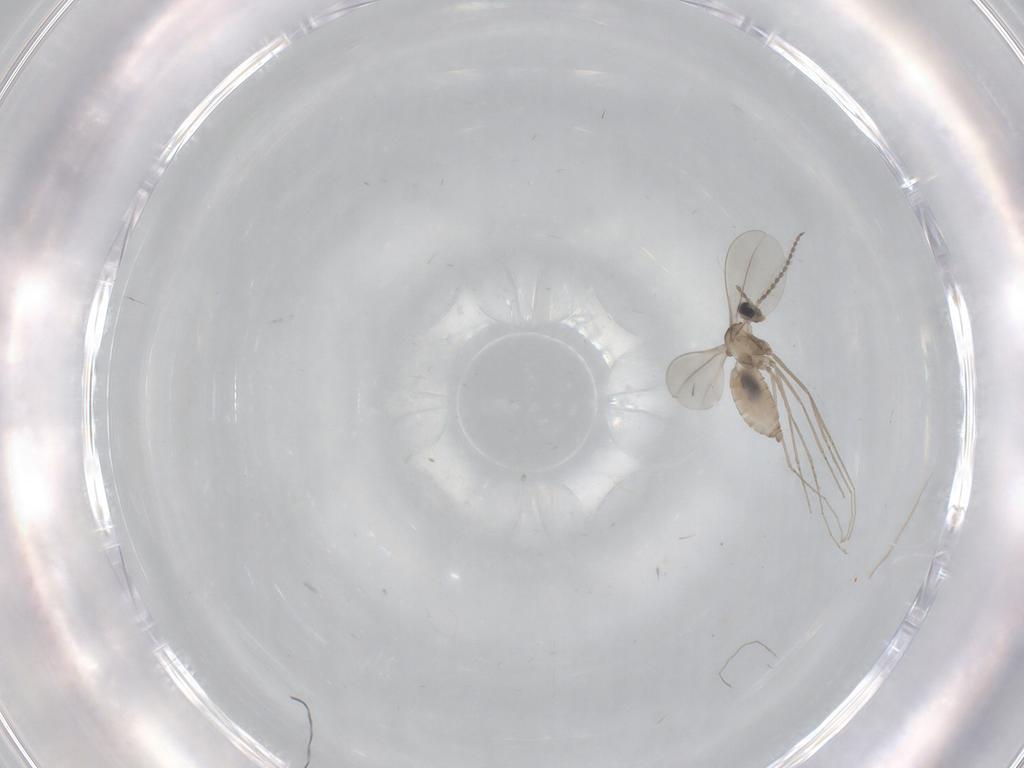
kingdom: Animalia
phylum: Arthropoda
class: Insecta
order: Diptera
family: Cecidomyiidae
